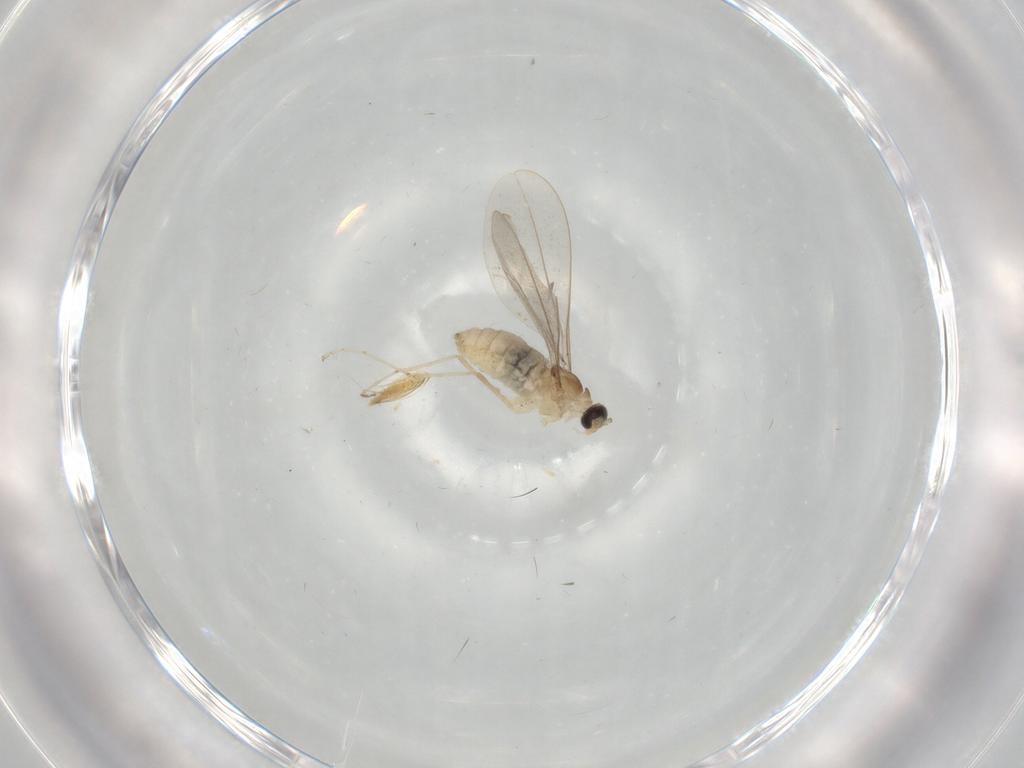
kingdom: Animalia
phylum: Arthropoda
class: Insecta
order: Diptera
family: Cecidomyiidae
